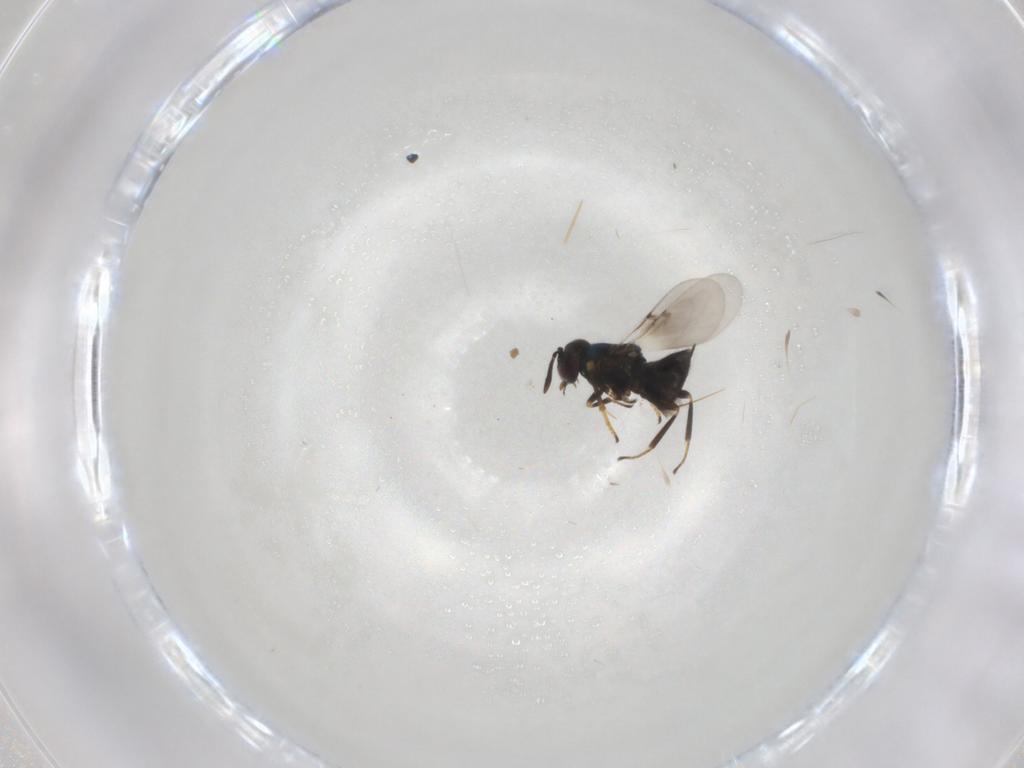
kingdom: Animalia
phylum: Arthropoda
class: Insecta
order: Hymenoptera
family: Encyrtidae
